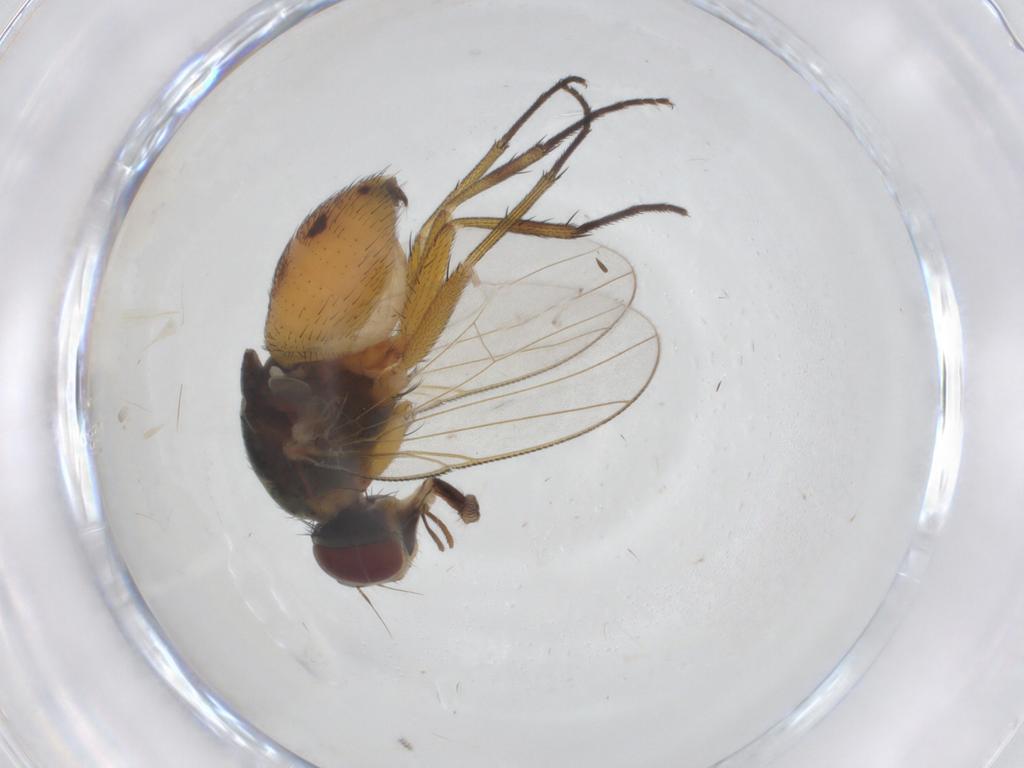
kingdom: Animalia
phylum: Arthropoda
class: Insecta
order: Diptera
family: Muscidae
